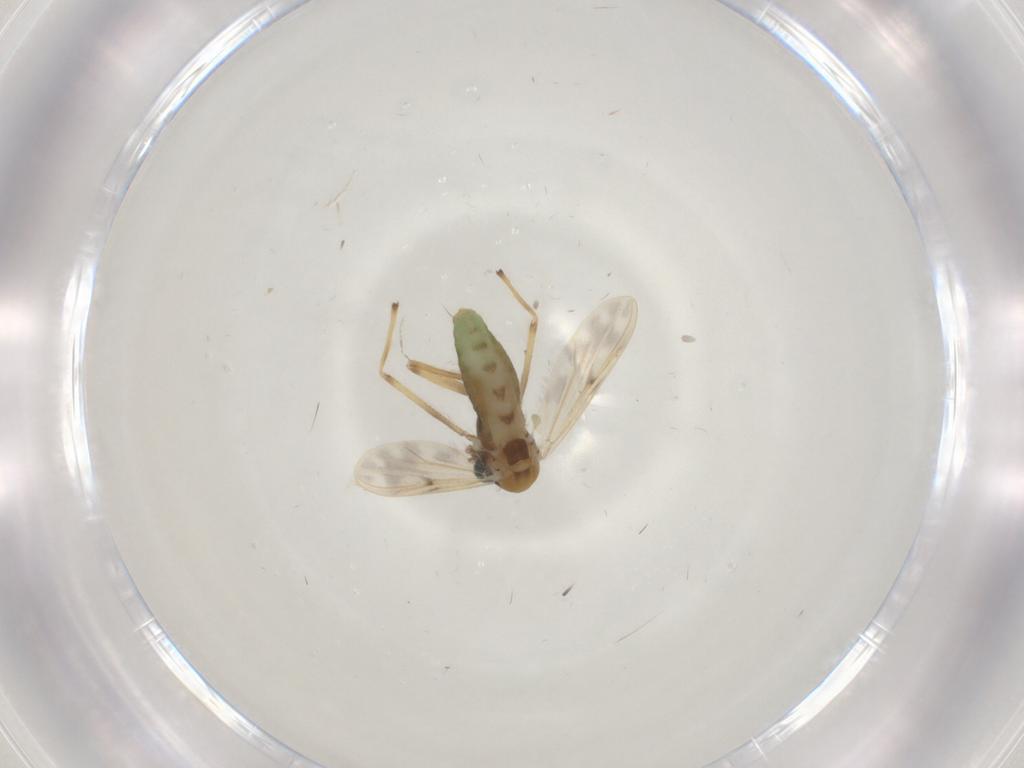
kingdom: Animalia
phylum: Arthropoda
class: Insecta
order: Diptera
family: Chironomidae
